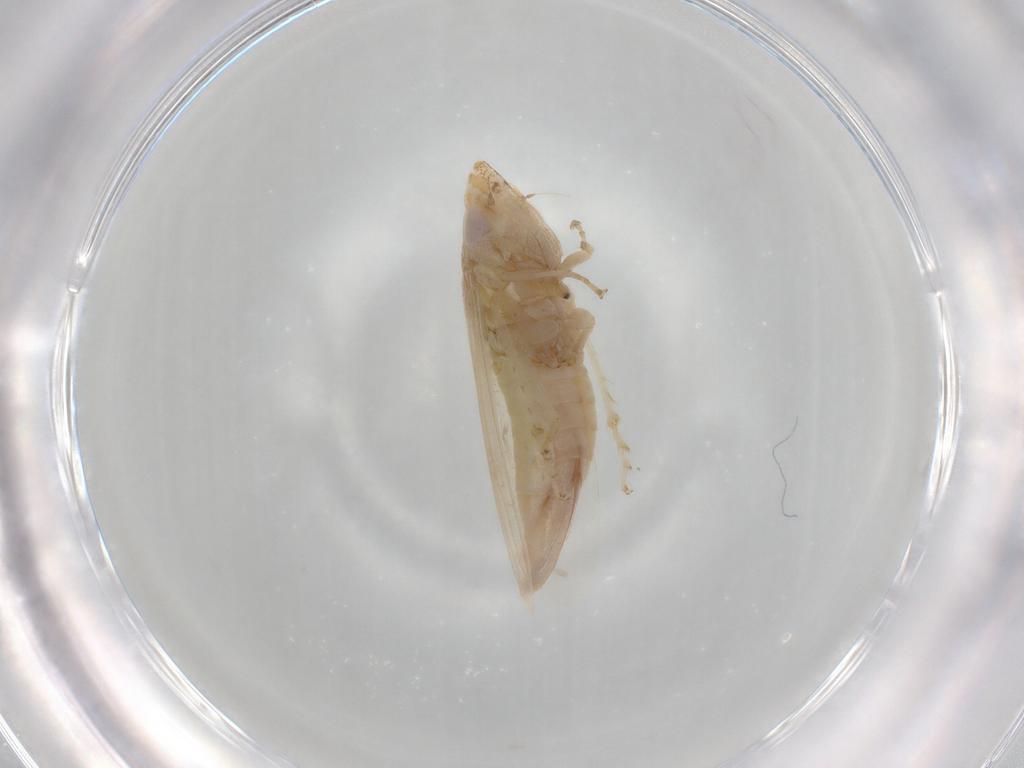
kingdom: Animalia
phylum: Arthropoda
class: Insecta
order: Hemiptera
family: Cicadellidae
